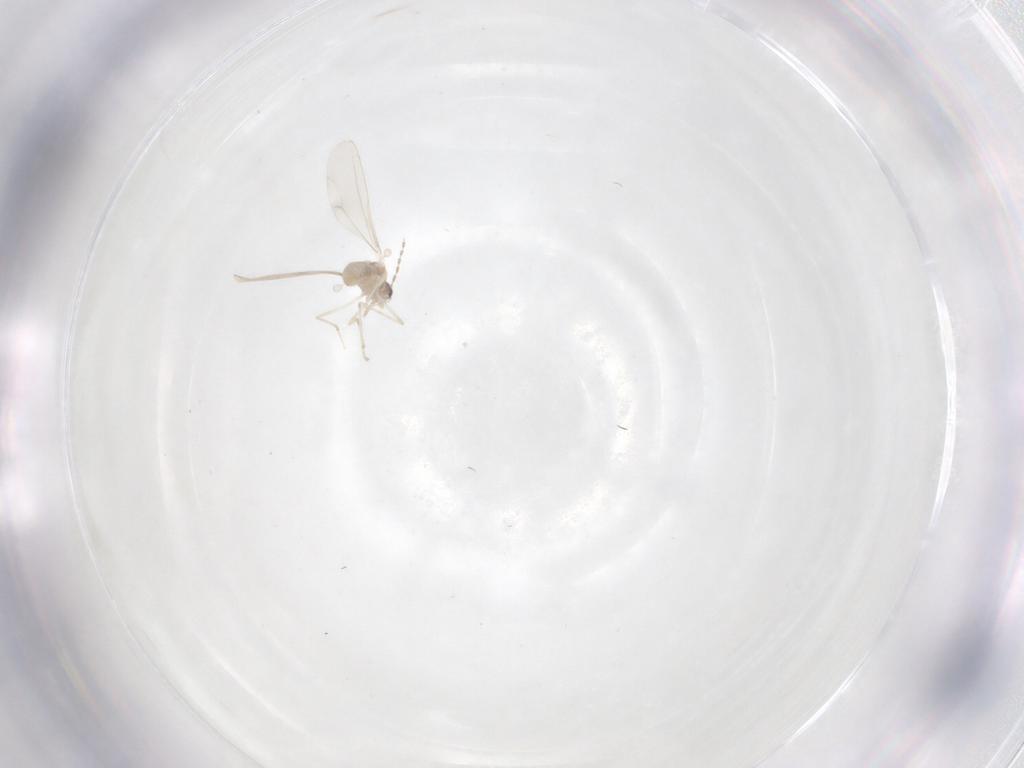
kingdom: Animalia
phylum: Arthropoda
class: Insecta
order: Diptera
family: Cecidomyiidae
